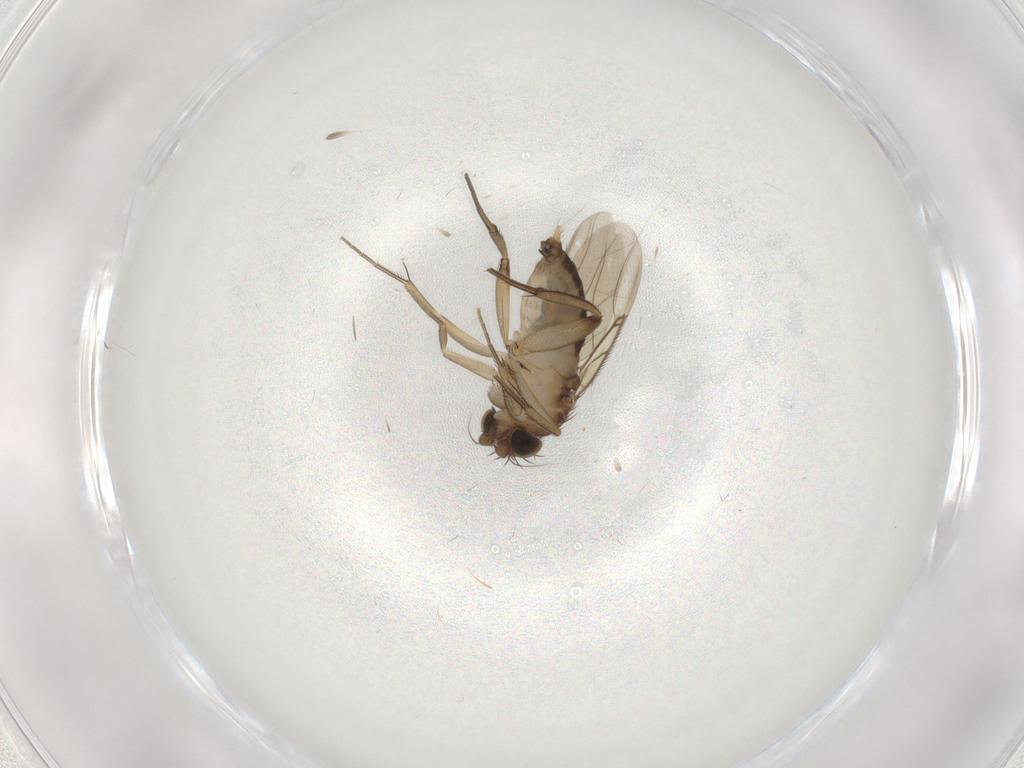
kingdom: Animalia
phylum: Arthropoda
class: Insecta
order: Diptera
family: Phoridae
